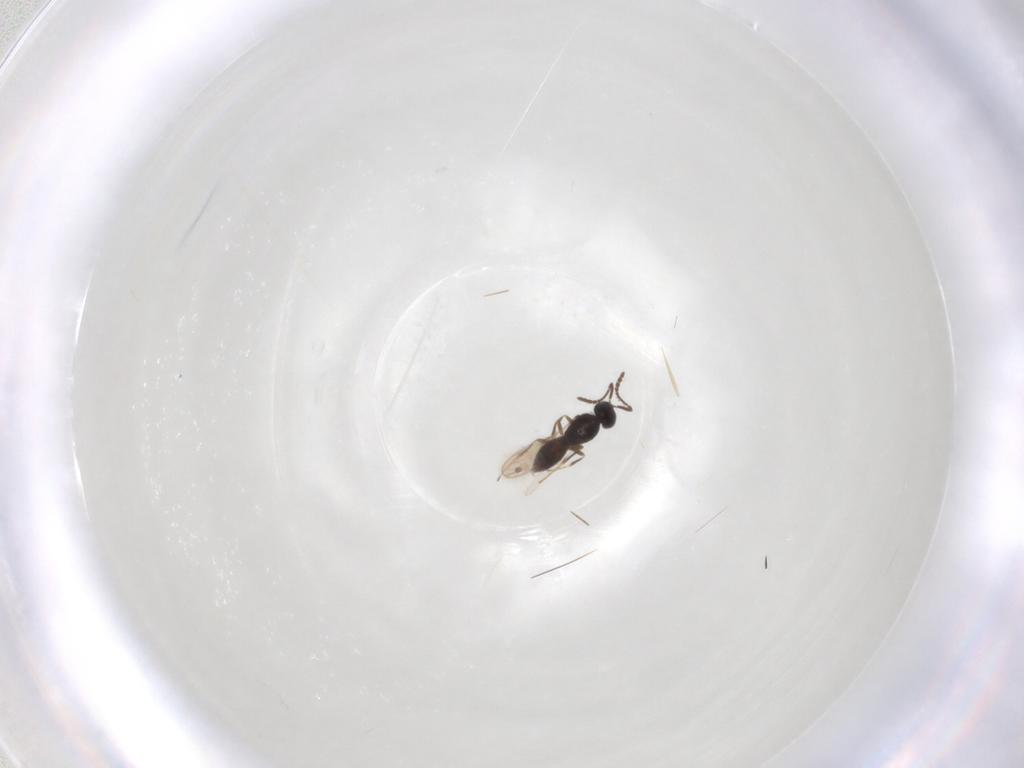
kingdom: Animalia
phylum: Arthropoda
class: Insecta
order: Hymenoptera
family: Scelionidae
